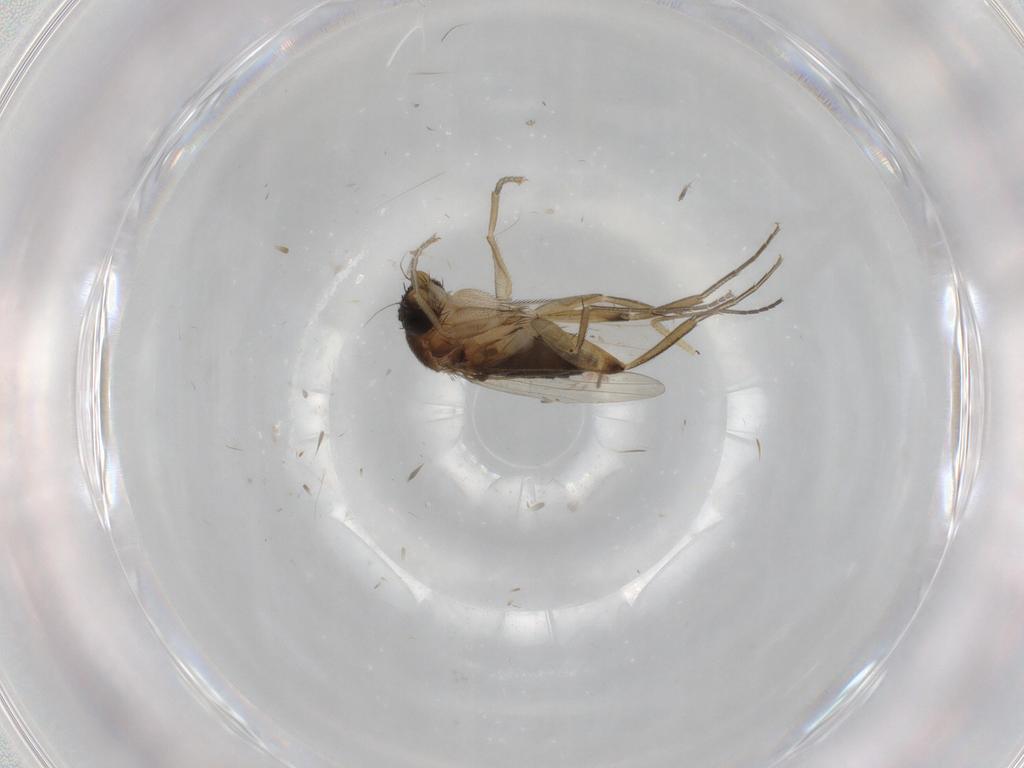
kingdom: Animalia
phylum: Arthropoda
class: Insecta
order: Diptera
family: Phoridae
